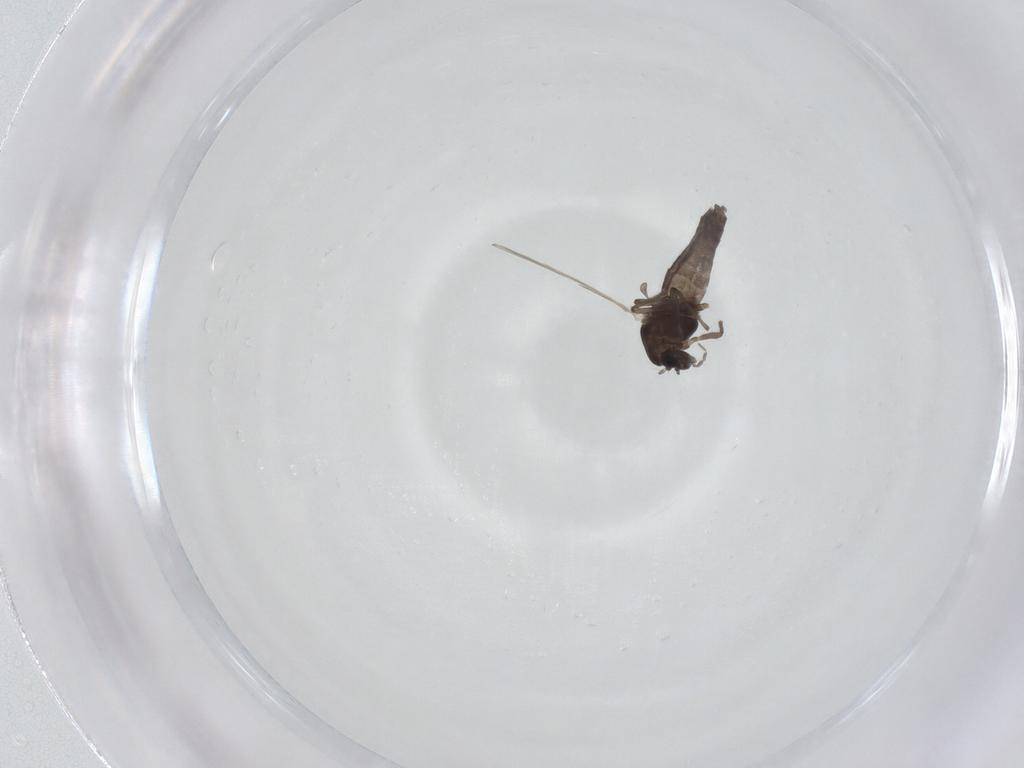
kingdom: Animalia
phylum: Arthropoda
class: Insecta
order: Diptera
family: Chironomidae
